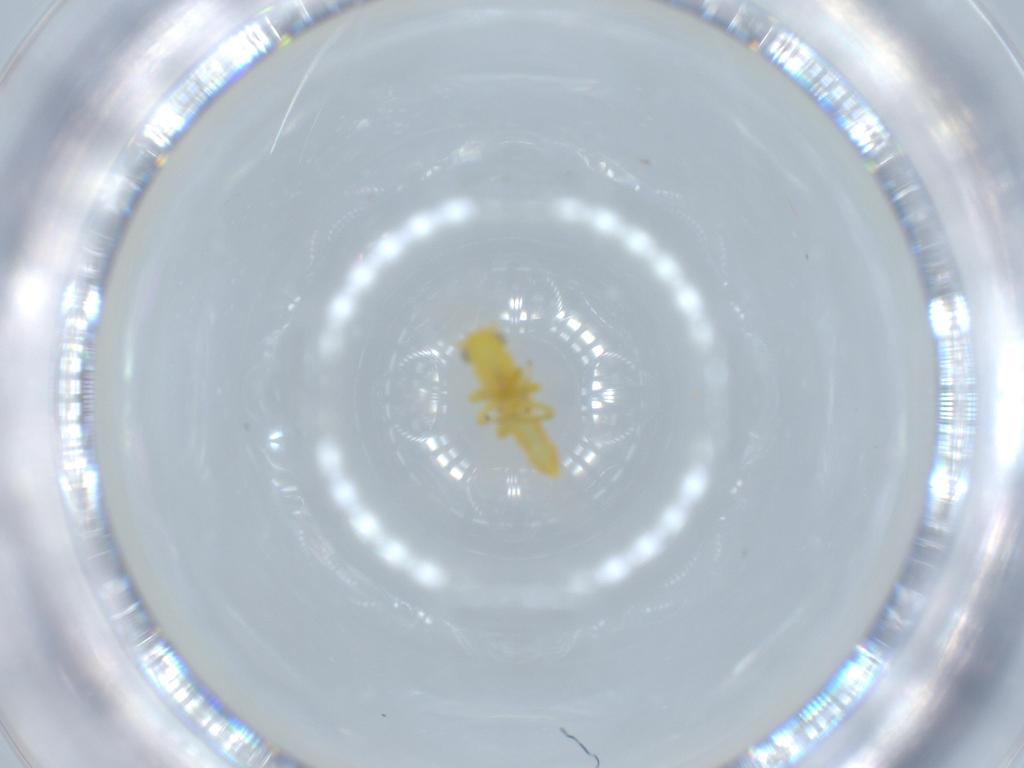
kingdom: Animalia
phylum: Arthropoda
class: Insecta
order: Hemiptera
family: Cicadellidae
